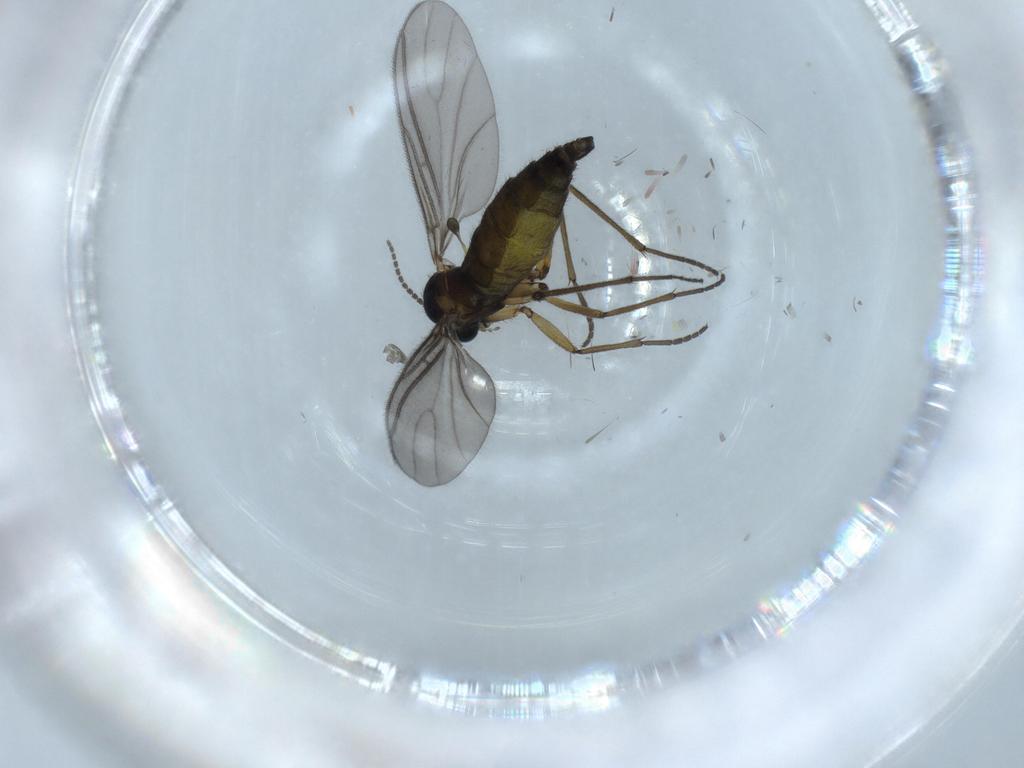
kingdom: Animalia
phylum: Arthropoda
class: Insecta
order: Diptera
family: Sciaridae
